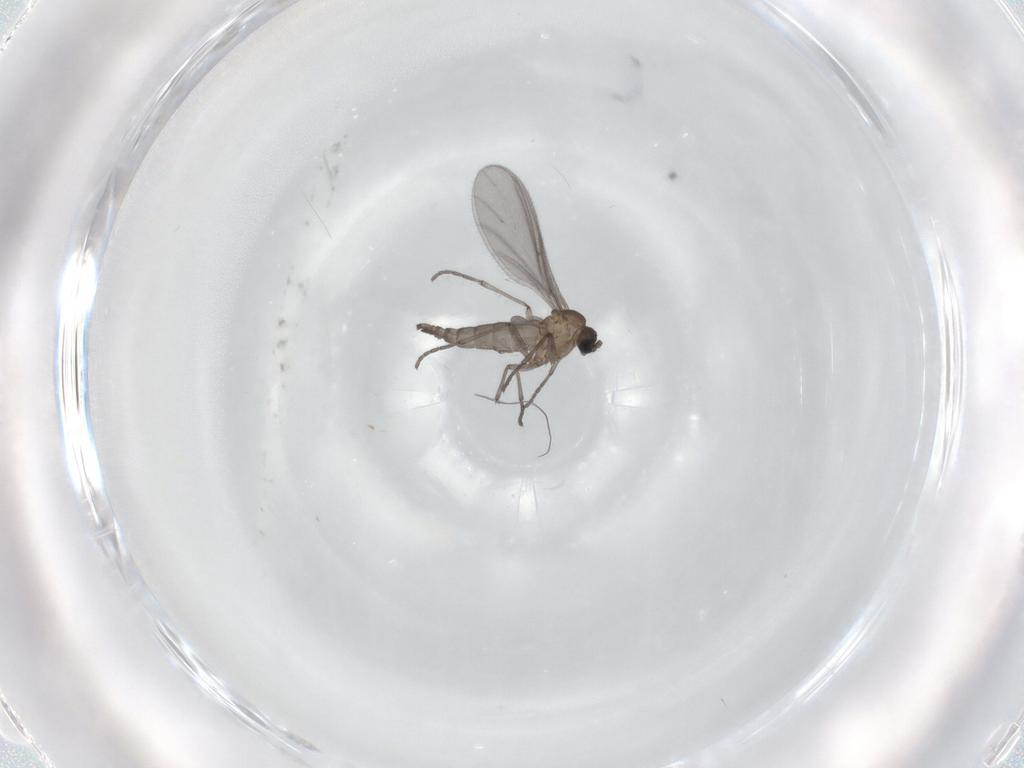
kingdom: Animalia
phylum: Arthropoda
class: Insecta
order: Diptera
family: Sciaridae
